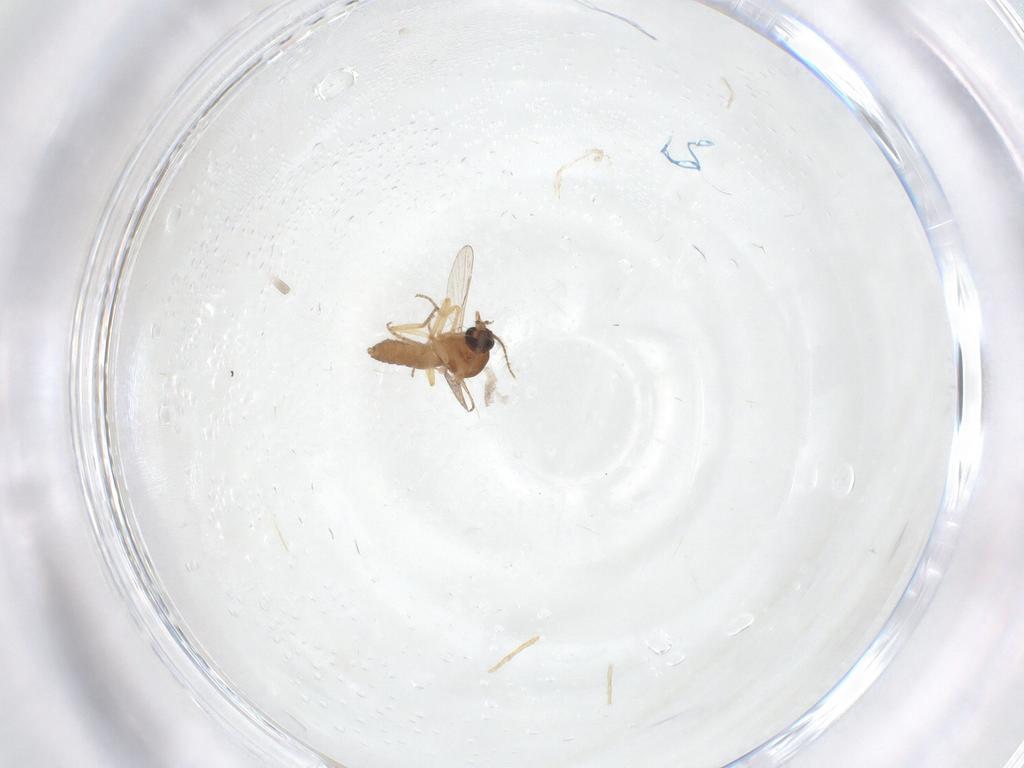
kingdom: Animalia
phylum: Arthropoda
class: Insecta
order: Diptera
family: Ceratopogonidae
